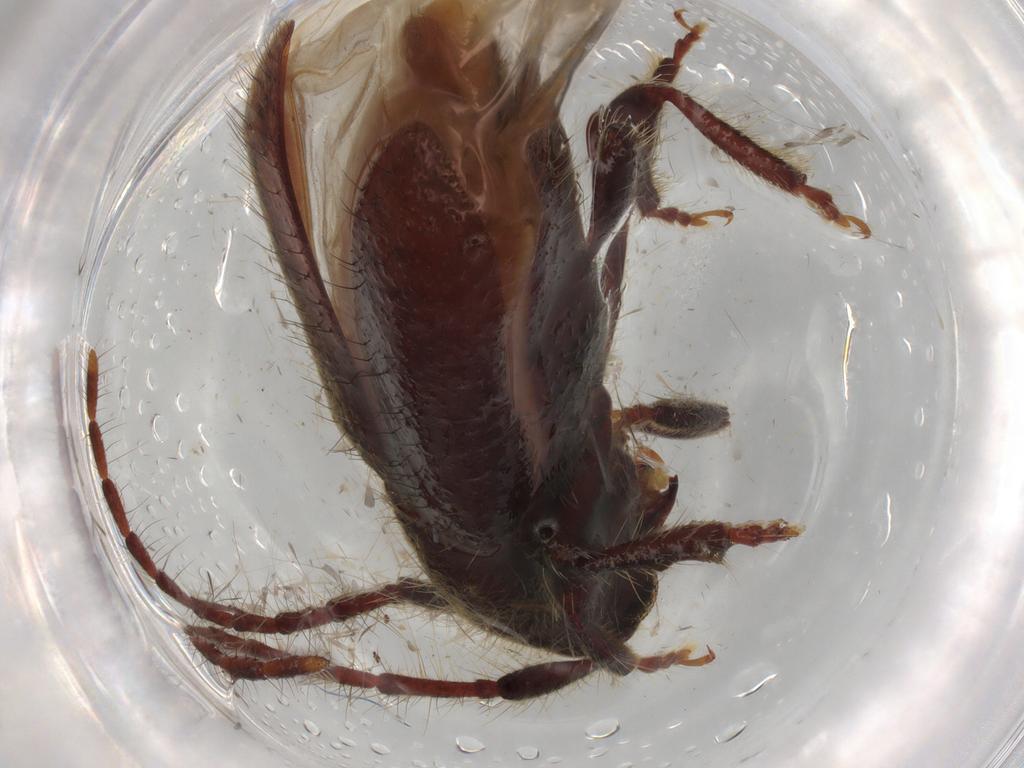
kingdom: Animalia
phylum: Arthropoda
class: Insecta
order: Coleoptera
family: Cerambycidae
